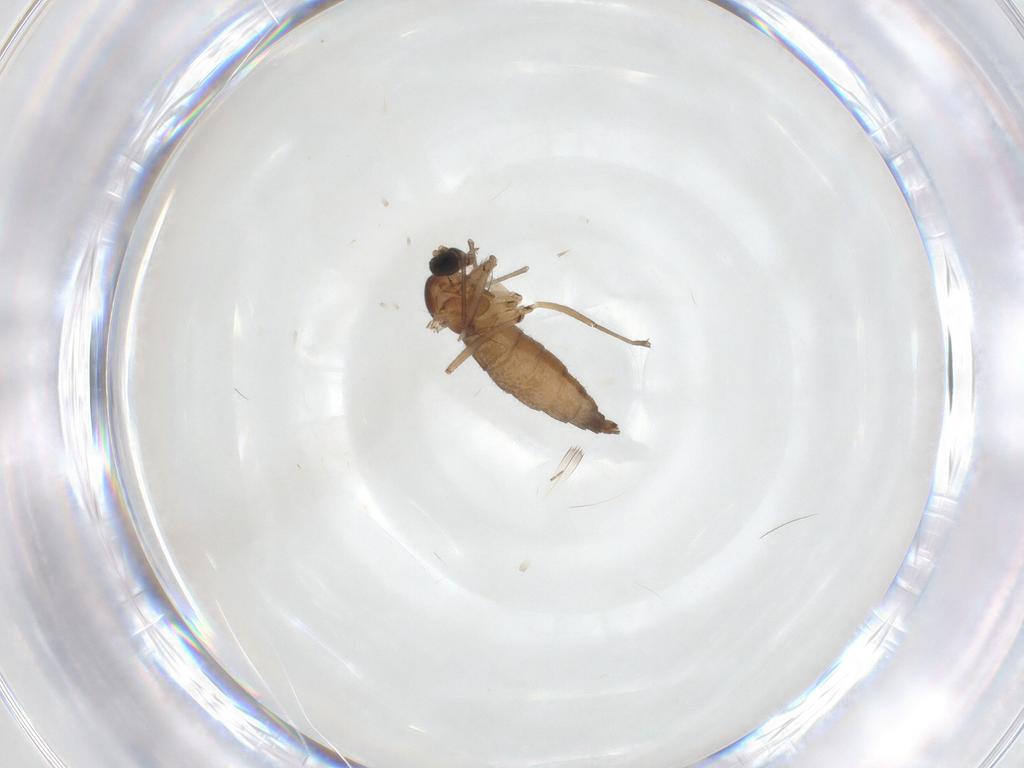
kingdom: Animalia
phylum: Arthropoda
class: Insecta
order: Diptera
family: Sciaridae
